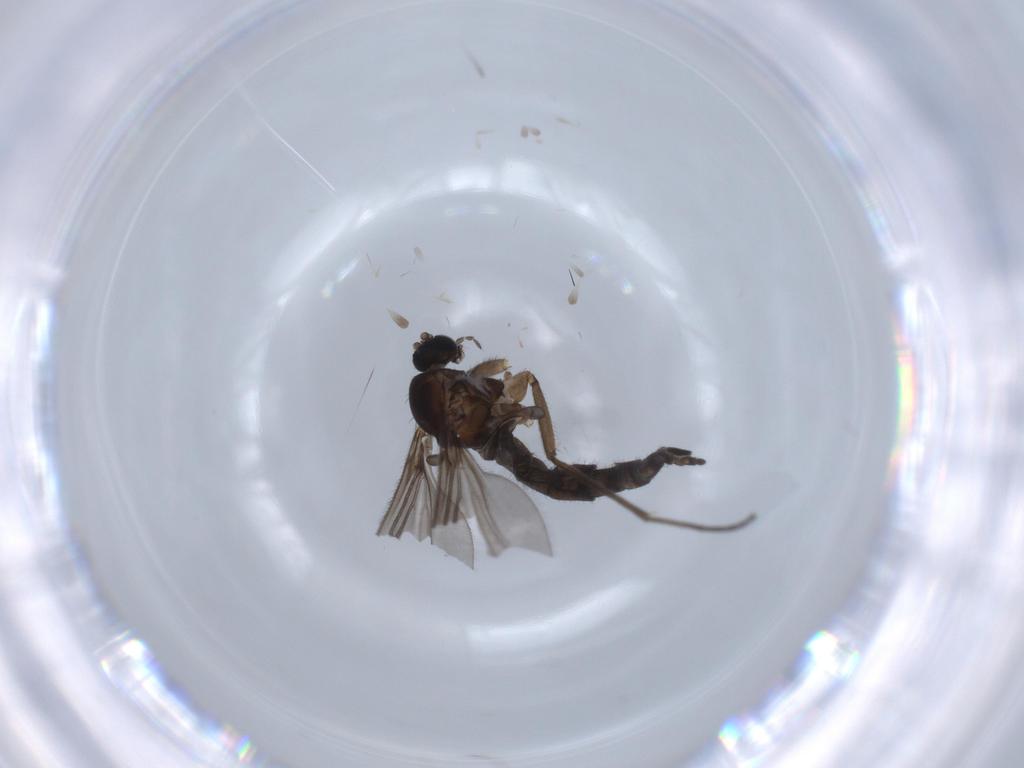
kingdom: Animalia
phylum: Arthropoda
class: Insecta
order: Diptera
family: Sciaridae
